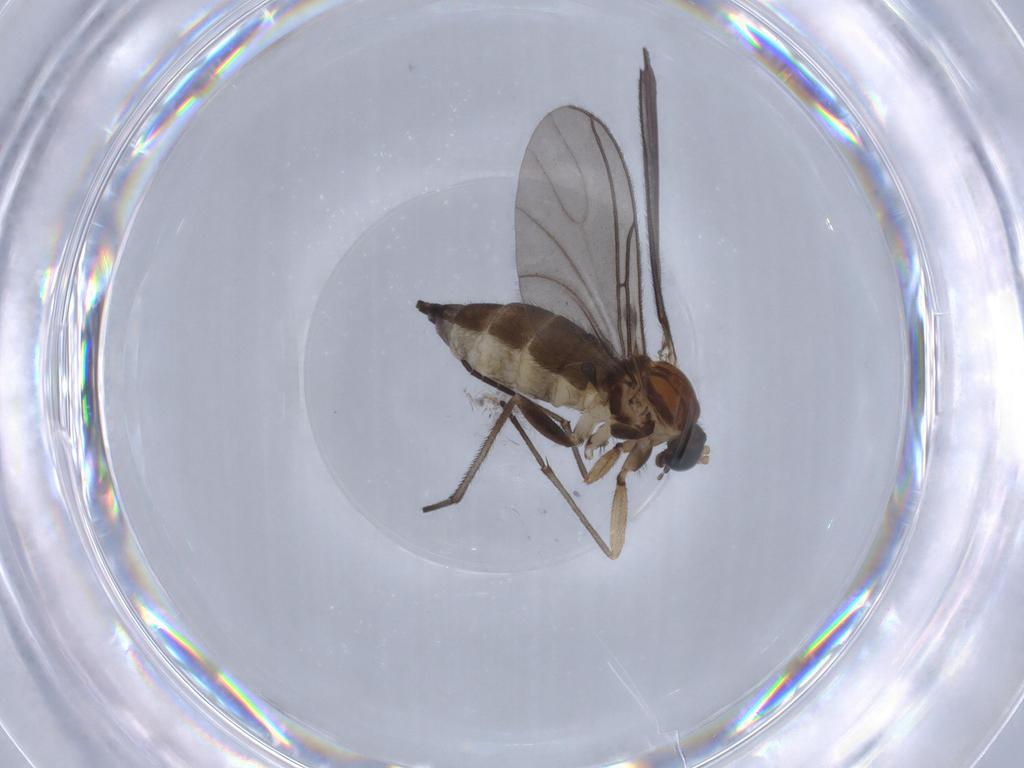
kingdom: Animalia
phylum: Arthropoda
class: Insecta
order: Diptera
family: Sciaridae
